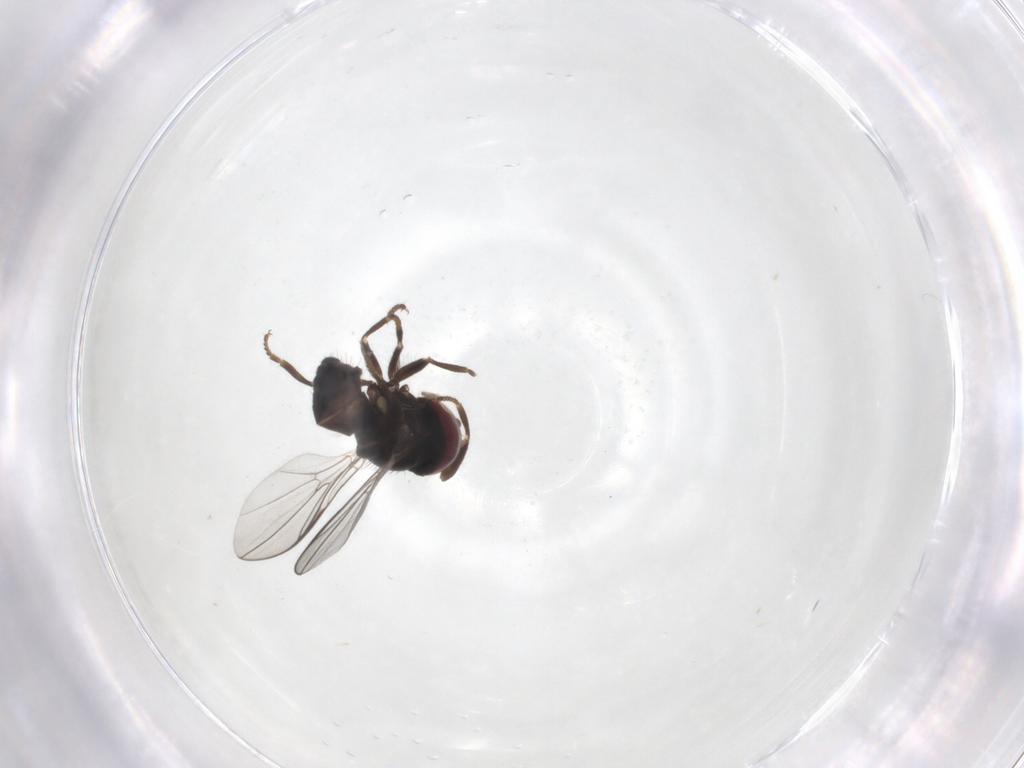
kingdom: Animalia
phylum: Arthropoda
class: Insecta
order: Diptera
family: Pipunculidae
